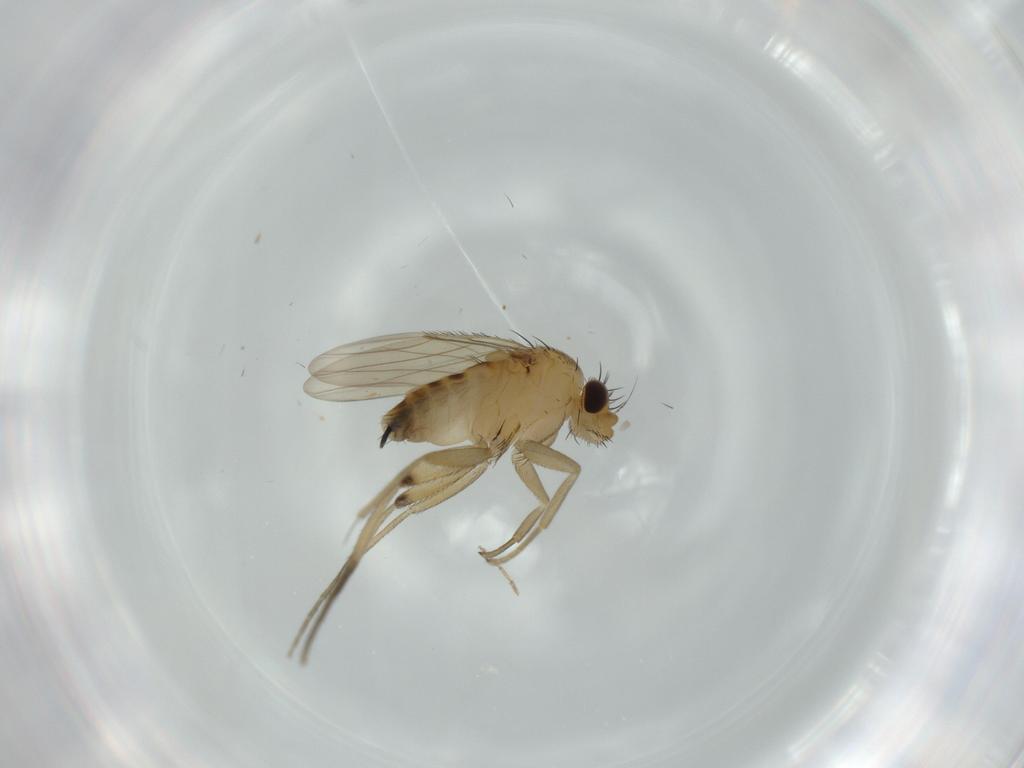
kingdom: Animalia
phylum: Arthropoda
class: Insecta
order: Diptera
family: Phoridae
